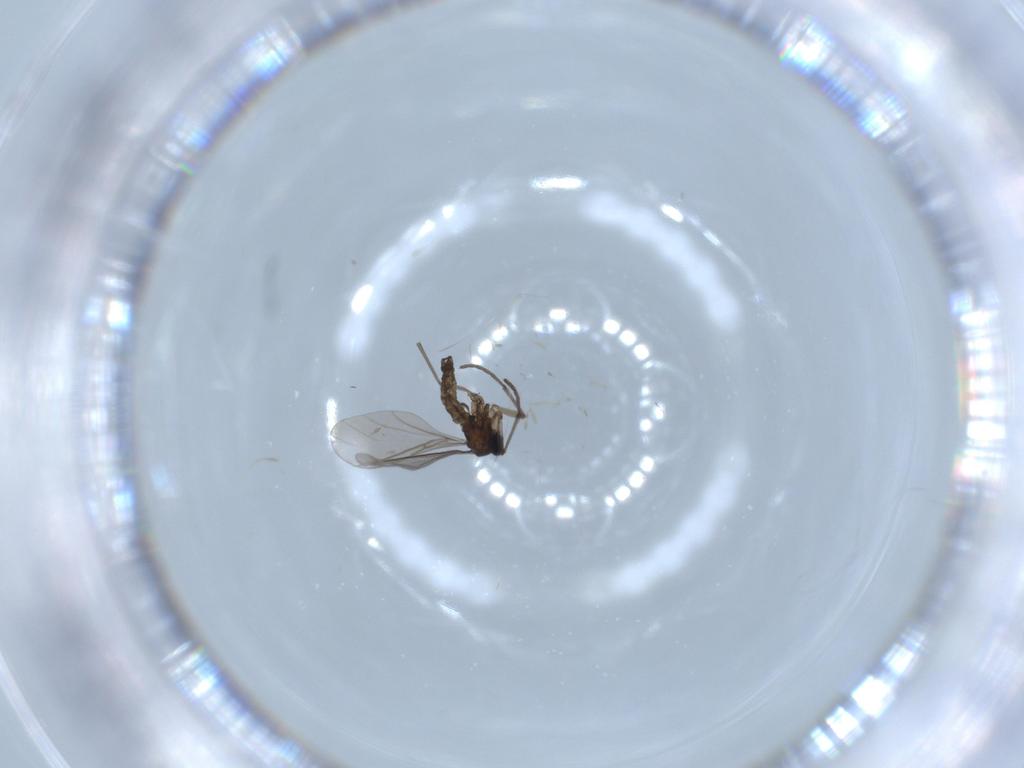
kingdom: Animalia
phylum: Arthropoda
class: Insecta
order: Diptera
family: Sciaridae
